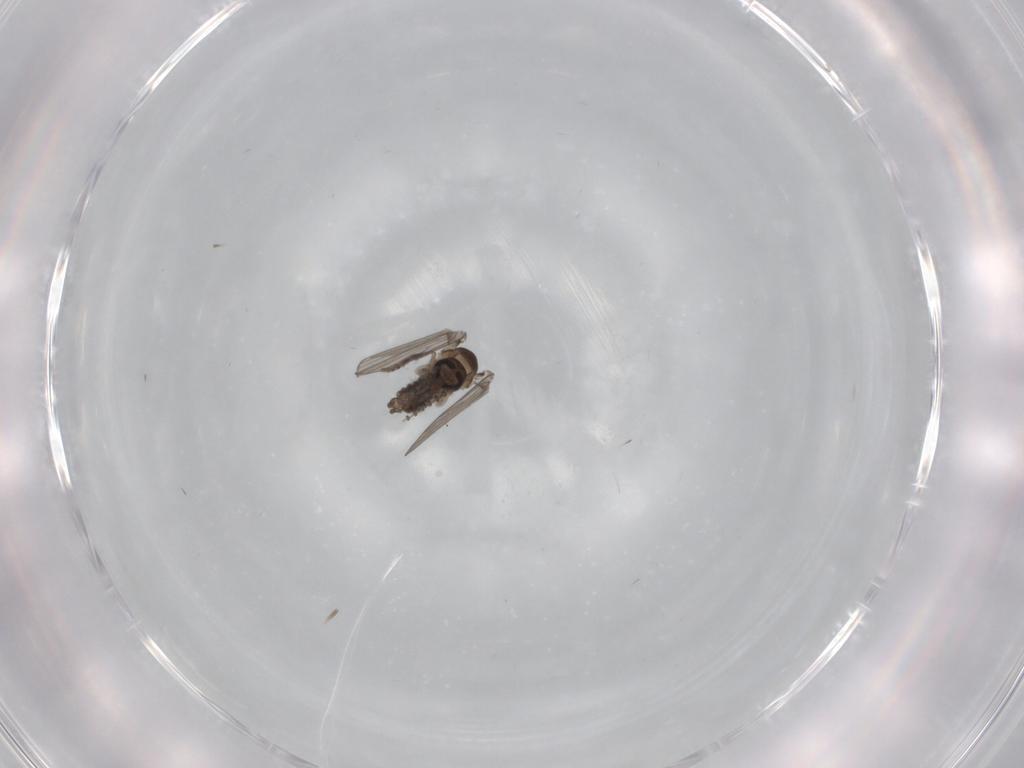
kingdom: Animalia
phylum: Arthropoda
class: Insecta
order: Diptera
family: Psychodidae
